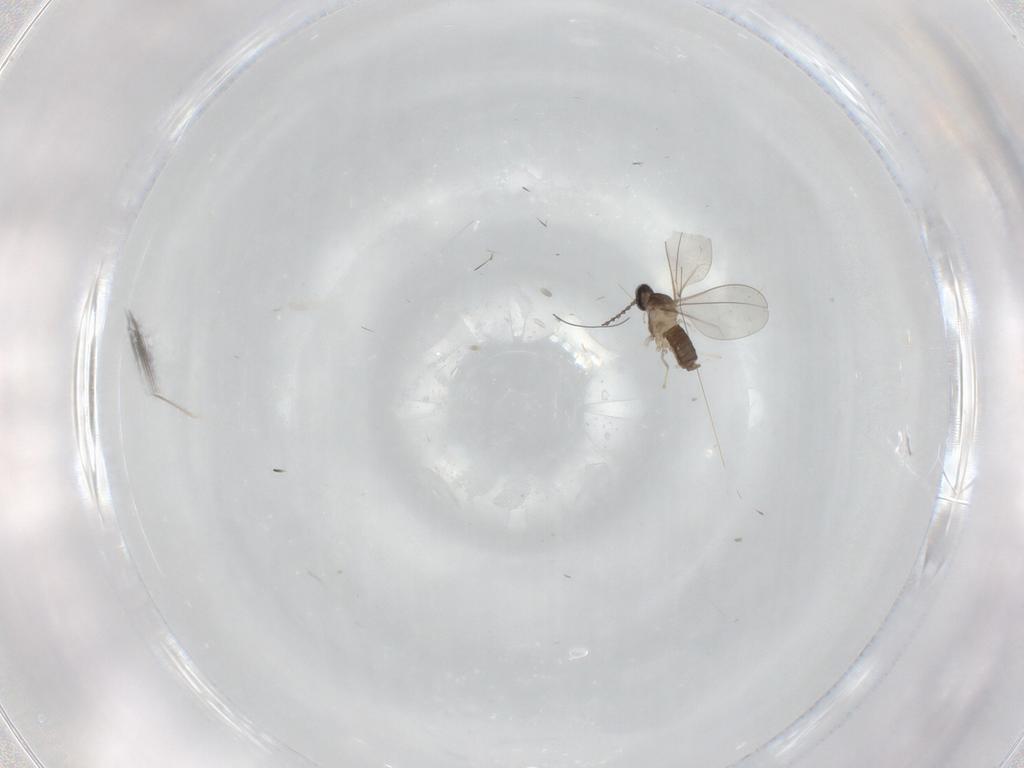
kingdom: Animalia
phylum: Arthropoda
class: Insecta
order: Diptera
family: Cecidomyiidae
